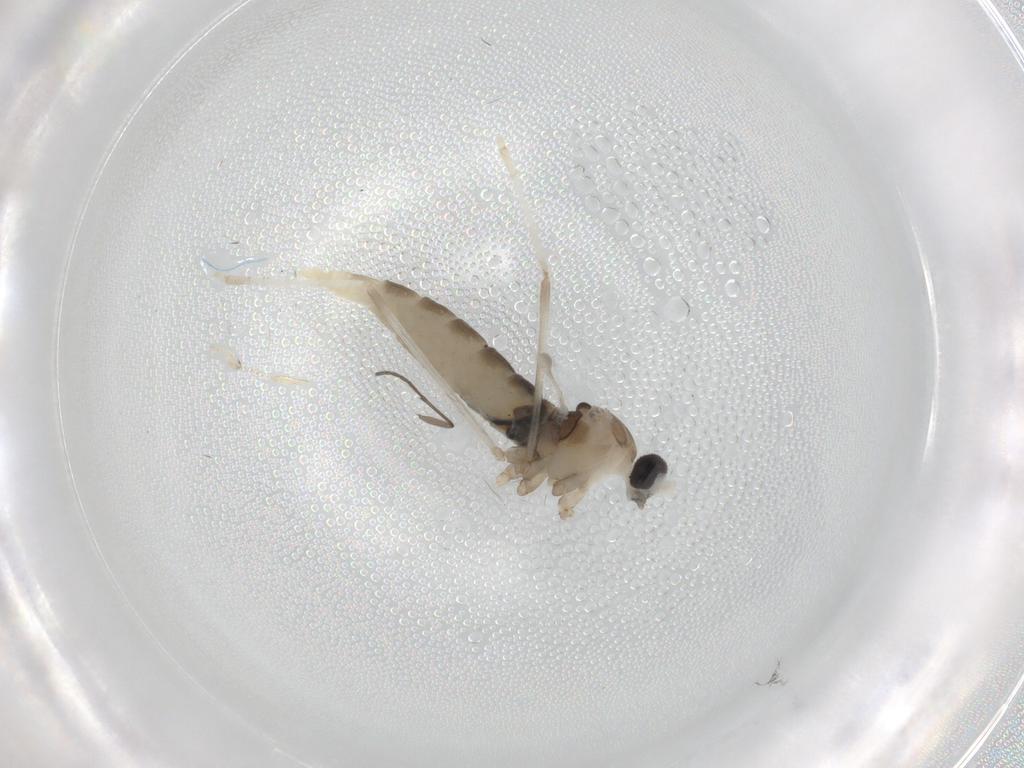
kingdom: Animalia
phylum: Arthropoda
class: Insecta
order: Diptera
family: Cecidomyiidae
